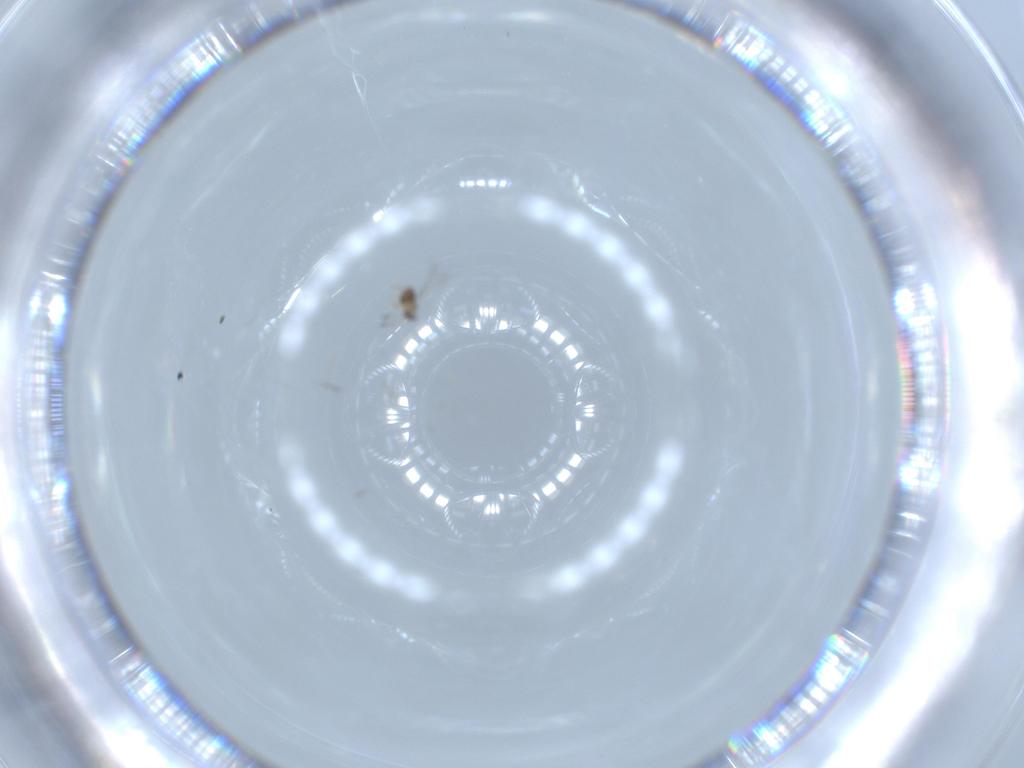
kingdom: Animalia
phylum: Arthropoda
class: Insecta
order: Hymenoptera
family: Mymaridae
